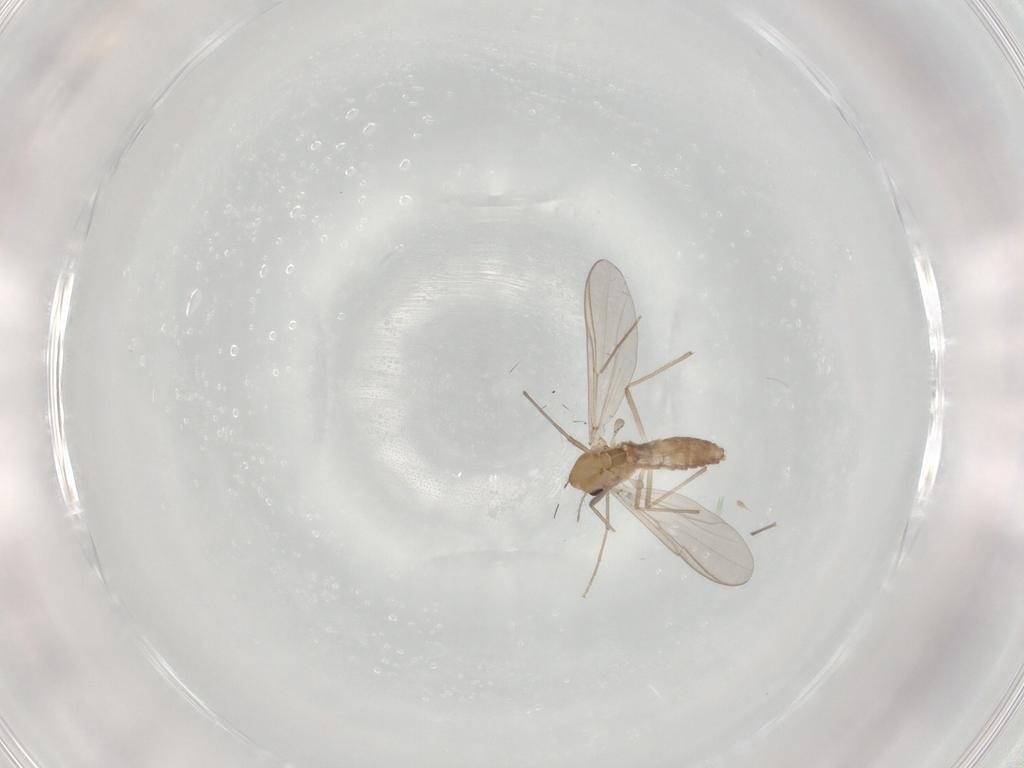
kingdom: Animalia
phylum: Arthropoda
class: Insecta
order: Diptera
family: Chironomidae
